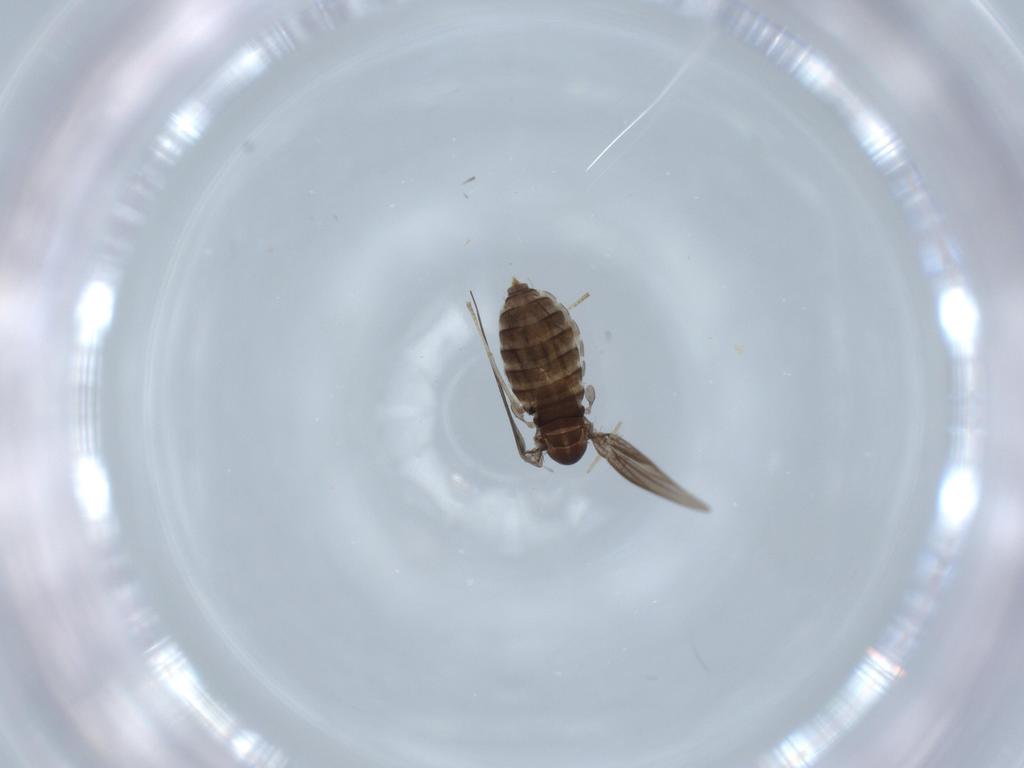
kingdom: Animalia
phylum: Arthropoda
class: Insecta
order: Diptera
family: Psychodidae
